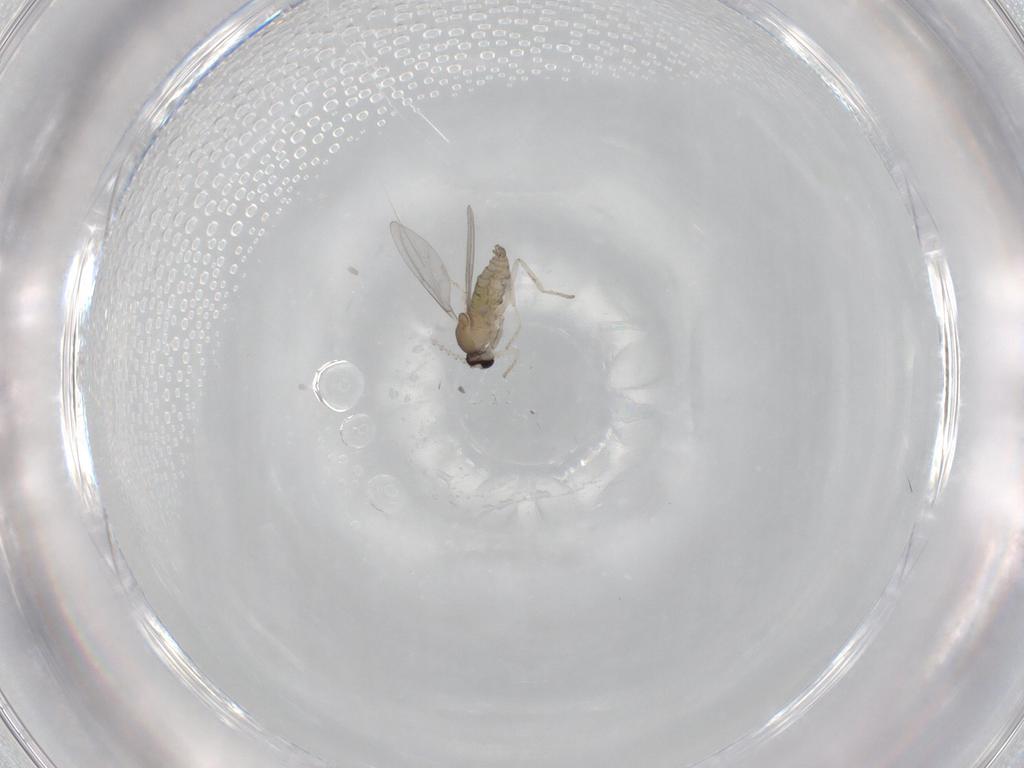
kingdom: Animalia
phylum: Arthropoda
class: Insecta
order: Diptera
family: Cecidomyiidae
